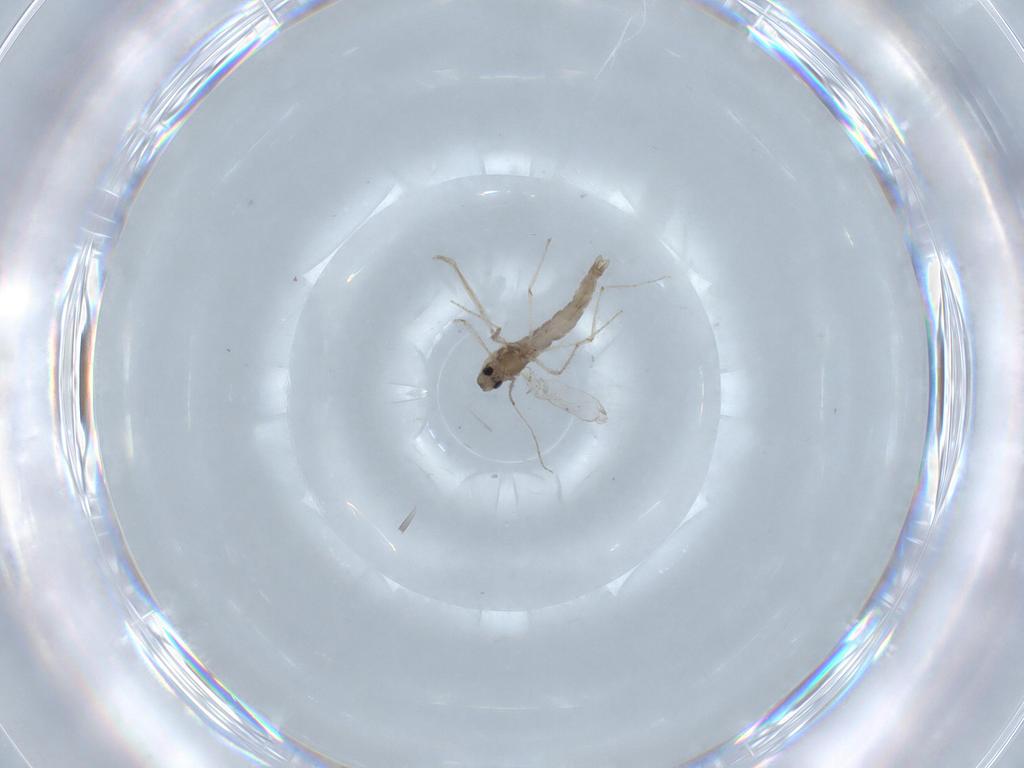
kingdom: Animalia
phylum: Arthropoda
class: Insecta
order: Diptera
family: Chironomidae
